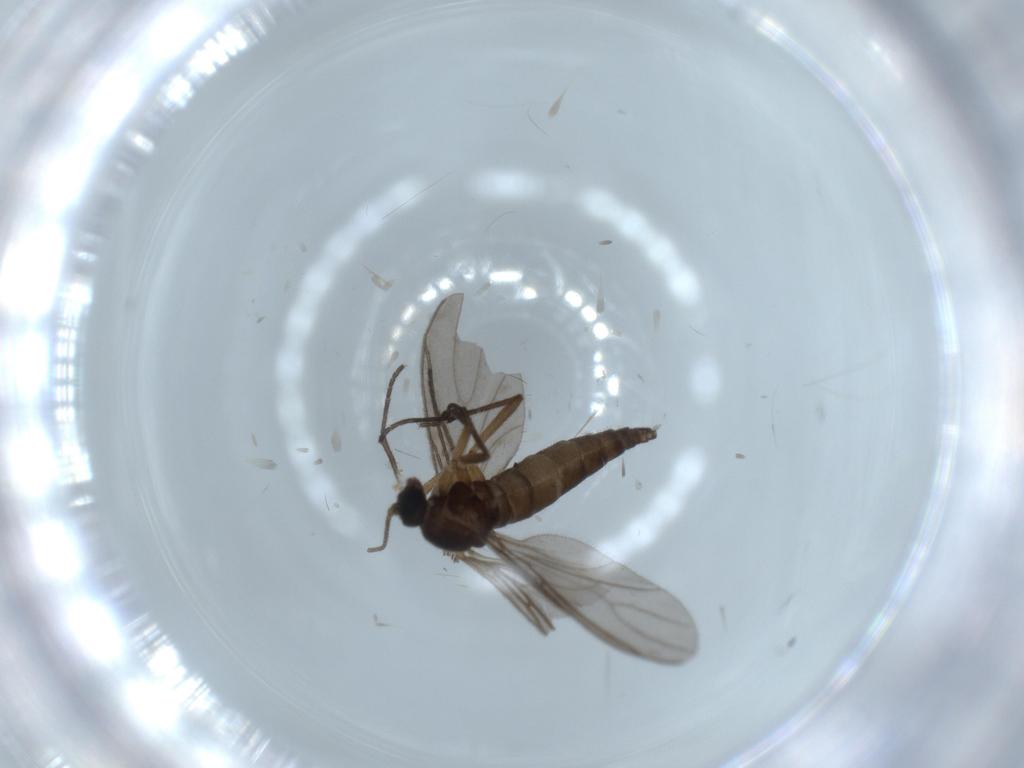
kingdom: Animalia
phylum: Arthropoda
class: Insecta
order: Diptera
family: Sciaridae
